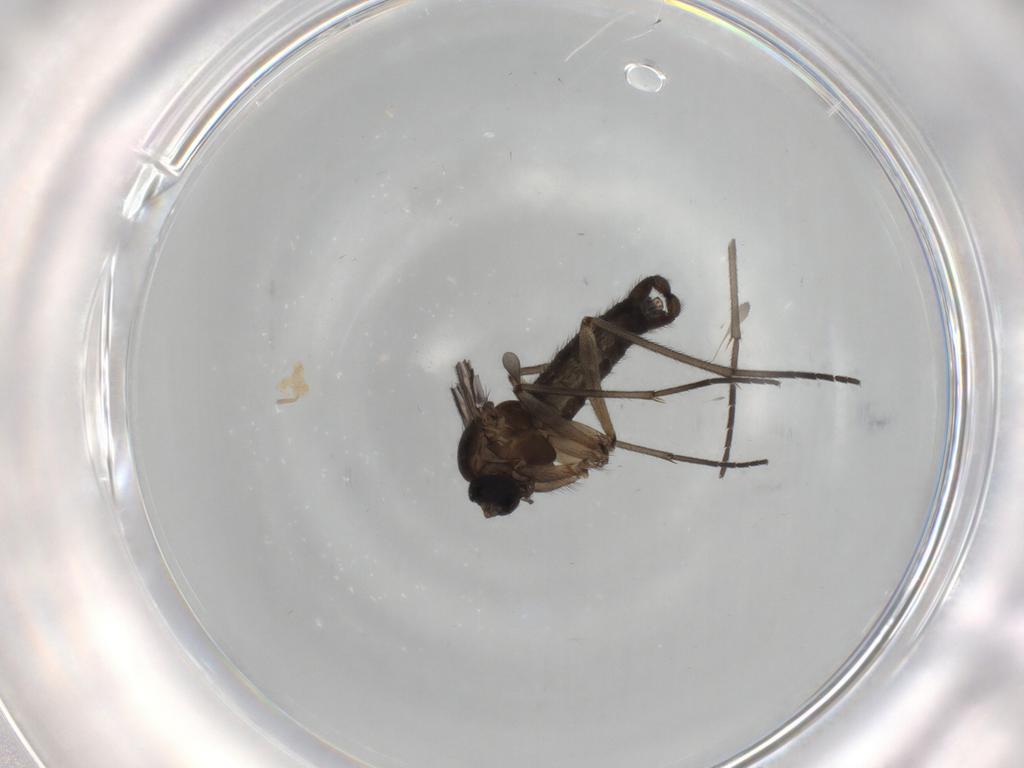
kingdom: Animalia
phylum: Arthropoda
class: Insecta
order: Diptera
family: Sciaridae
